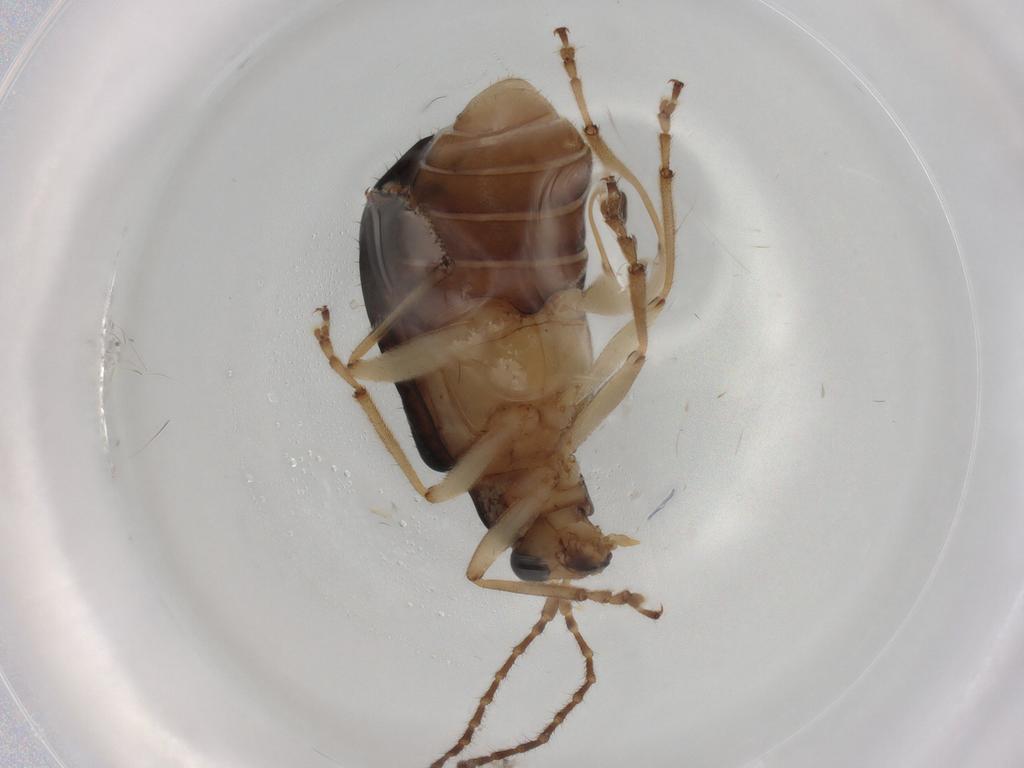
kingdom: Animalia
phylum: Arthropoda
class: Insecta
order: Coleoptera
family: Chrysomelidae
